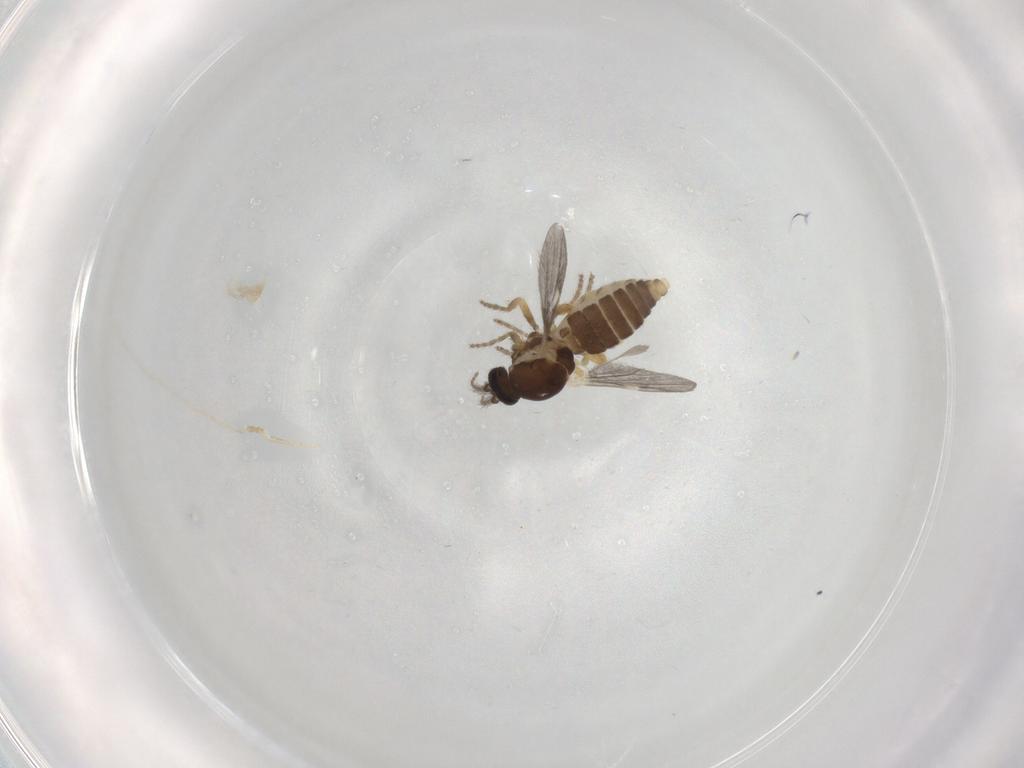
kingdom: Animalia
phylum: Arthropoda
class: Insecta
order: Diptera
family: Ceratopogonidae
